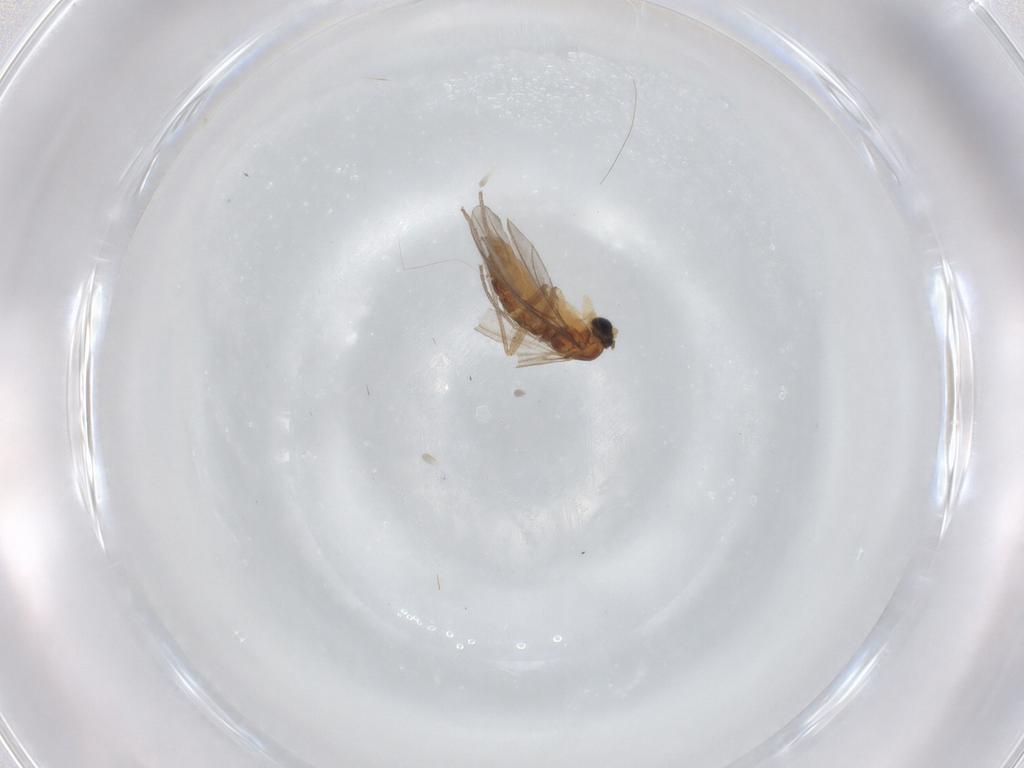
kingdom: Animalia
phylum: Arthropoda
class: Insecta
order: Diptera
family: Sciaridae
